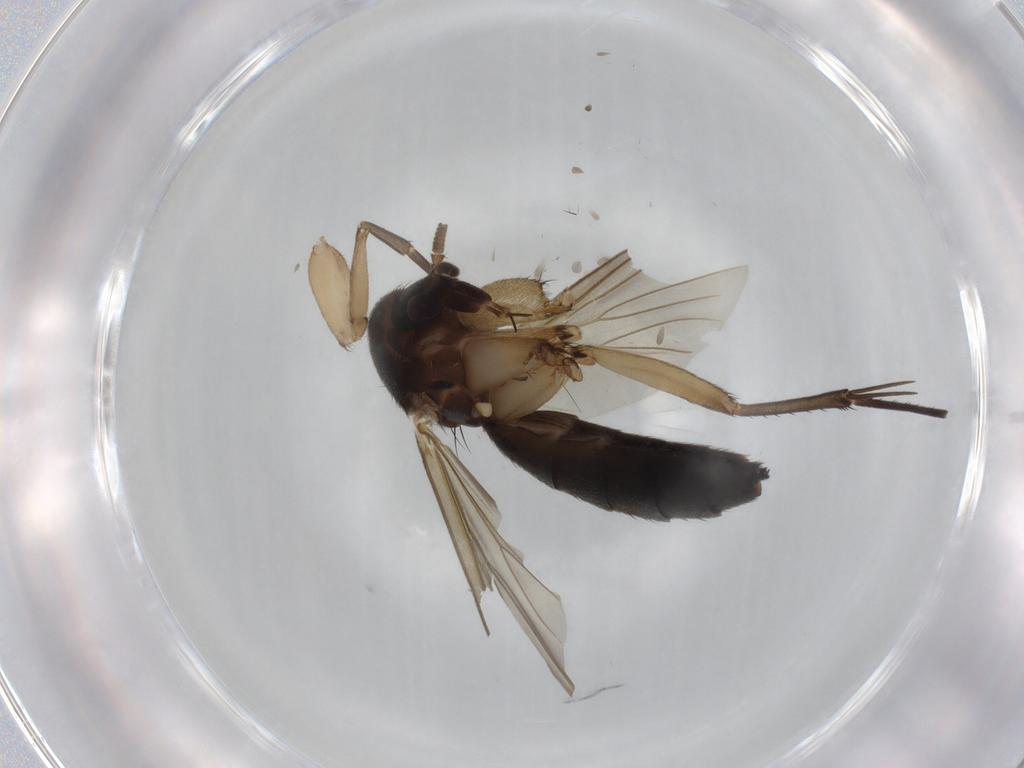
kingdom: Animalia
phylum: Arthropoda
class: Insecta
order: Diptera
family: Mycetophilidae
